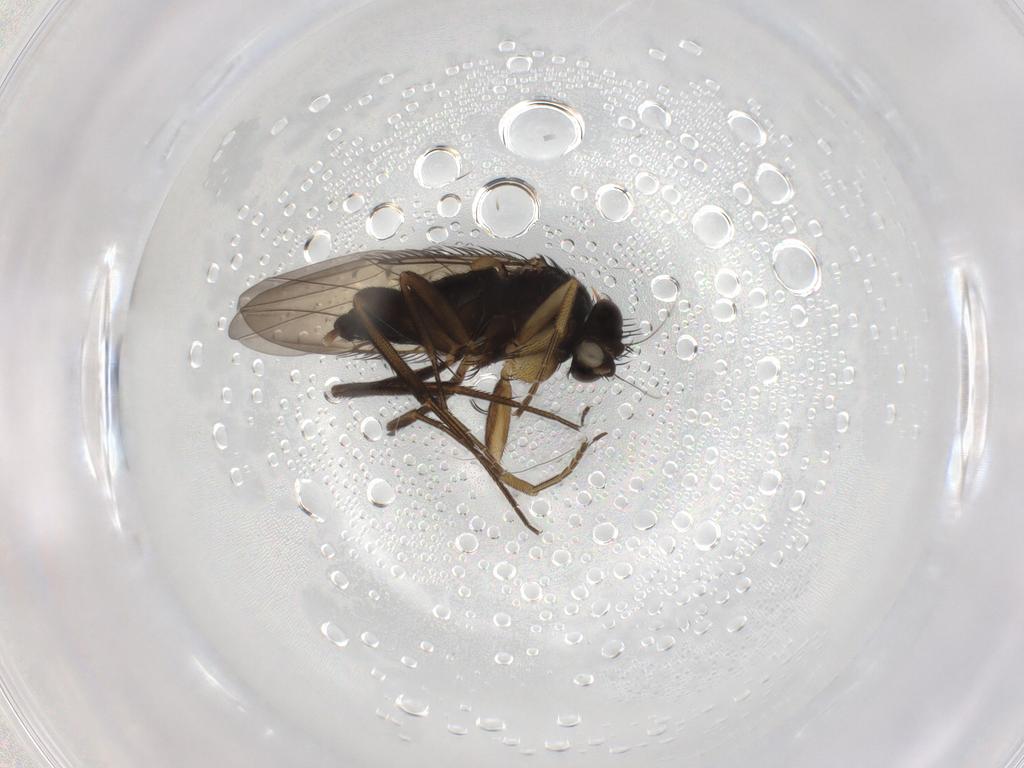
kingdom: Animalia
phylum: Arthropoda
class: Insecta
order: Diptera
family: Phoridae
